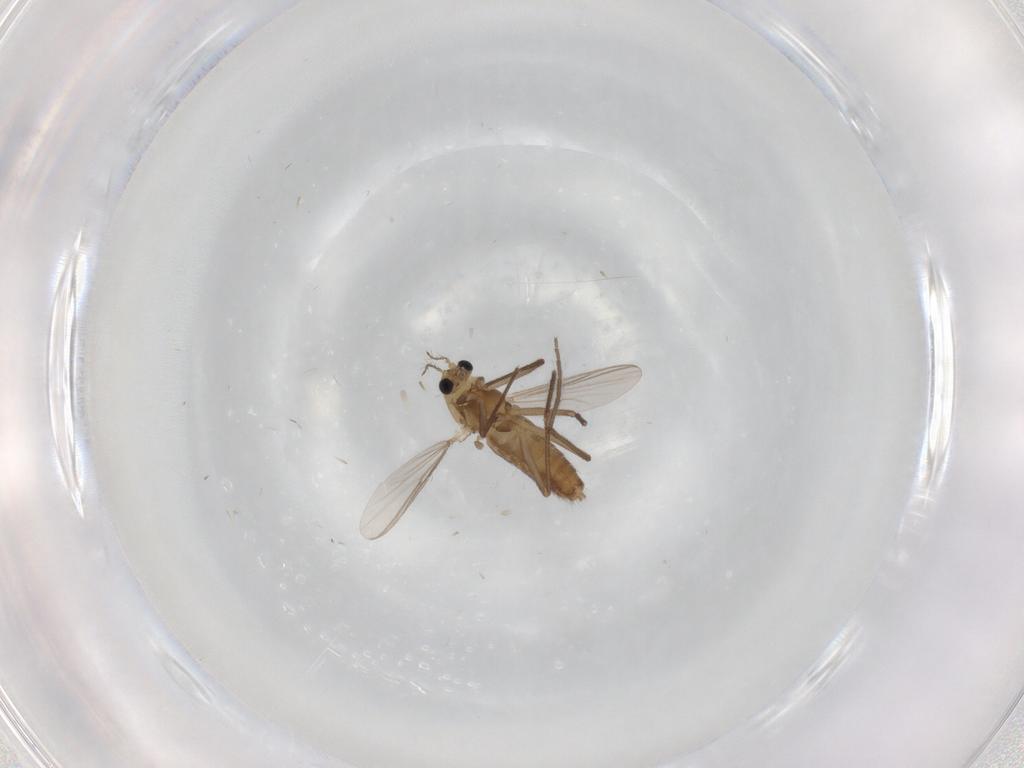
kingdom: Animalia
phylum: Arthropoda
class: Insecta
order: Diptera
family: Chironomidae
